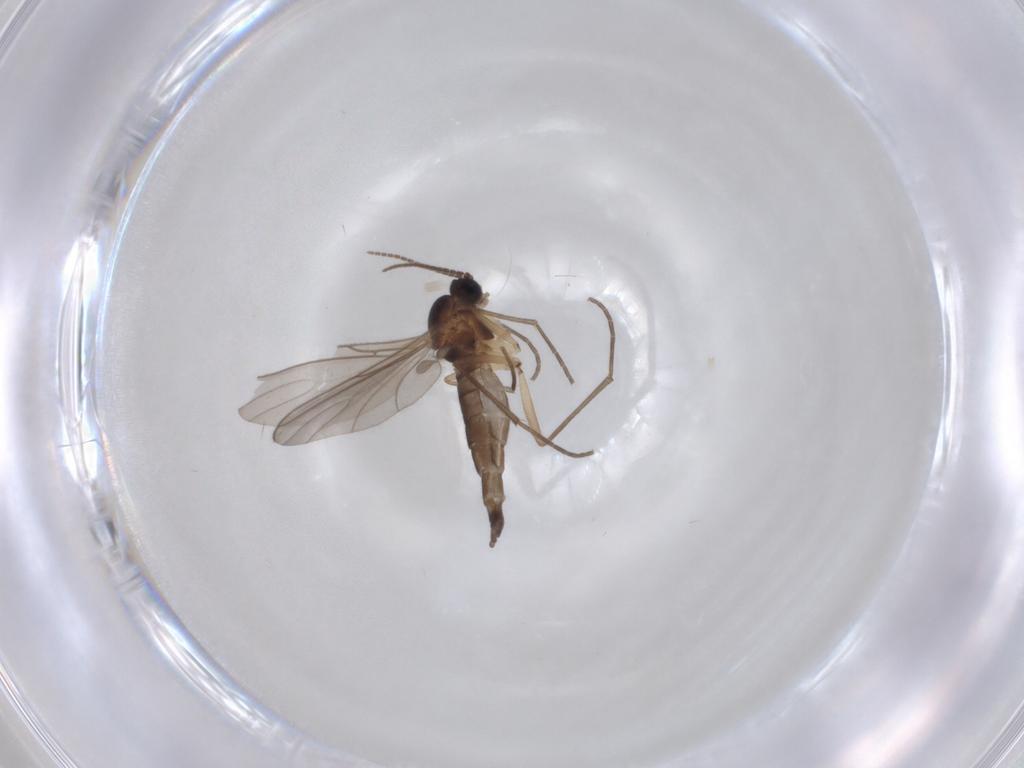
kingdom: Animalia
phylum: Arthropoda
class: Insecta
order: Diptera
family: Sciaridae
